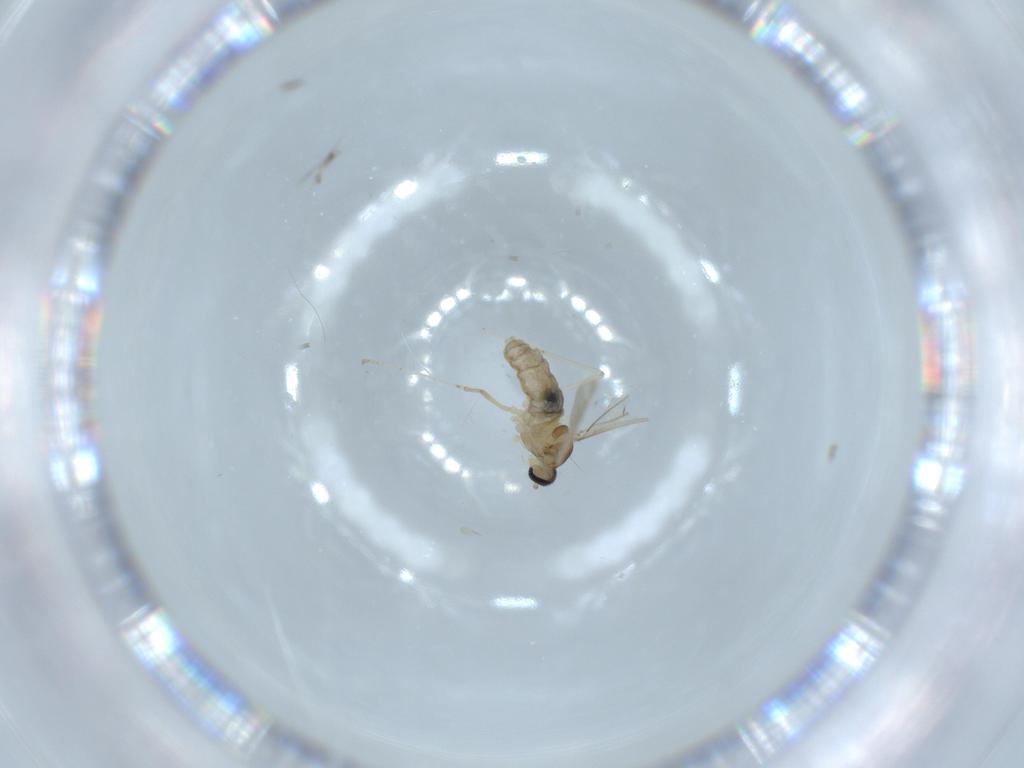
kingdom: Animalia
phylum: Arthropoda
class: Insecta
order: Diptera
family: Cecidomyiidae
